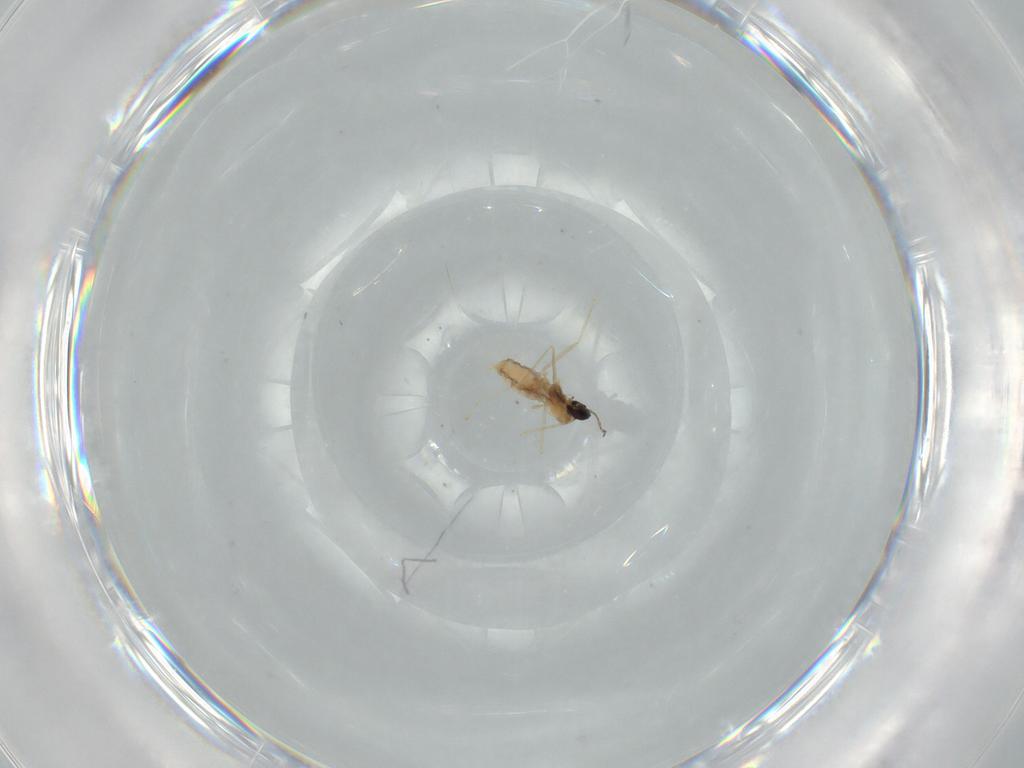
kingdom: Animalia
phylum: Arthropoda
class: Insecta
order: Diptera
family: Cecidomyiidae
